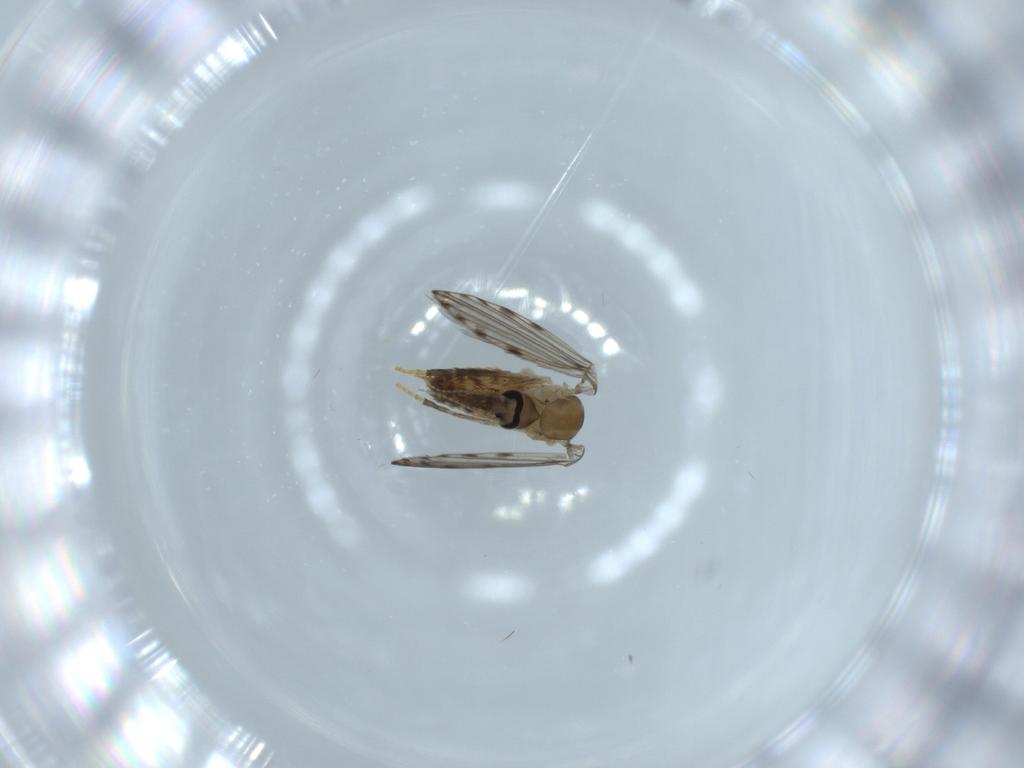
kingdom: Animalia
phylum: Arthropoda
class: Insecta
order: Diptera
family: Psychodidae
